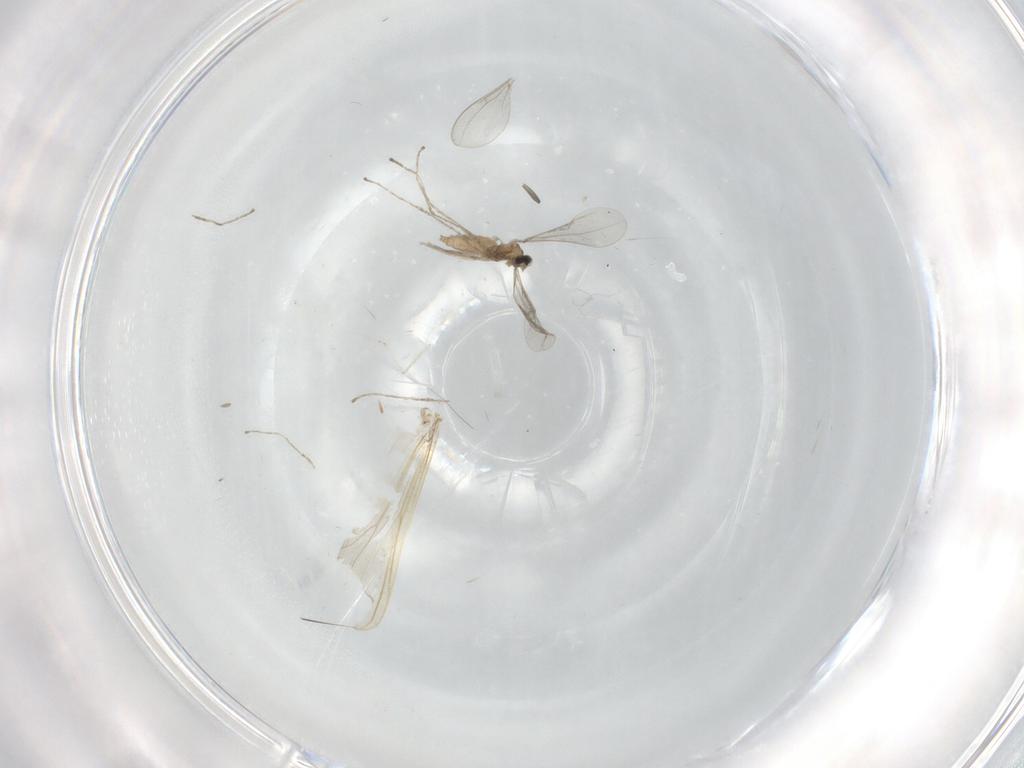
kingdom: Animalia
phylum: Arthropoda
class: Insecta
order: Diptera
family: Cecidomyiidae
